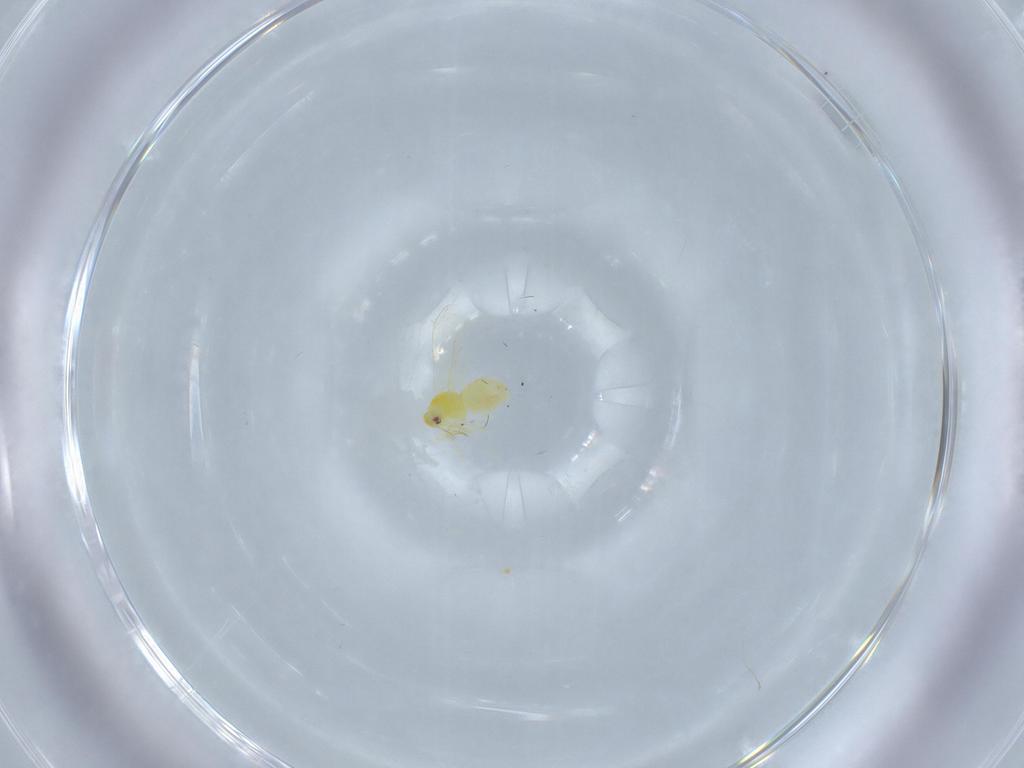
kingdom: Animalia
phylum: Arthropoda
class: Insecta
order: Hemiptera
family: Aleyrodidae
